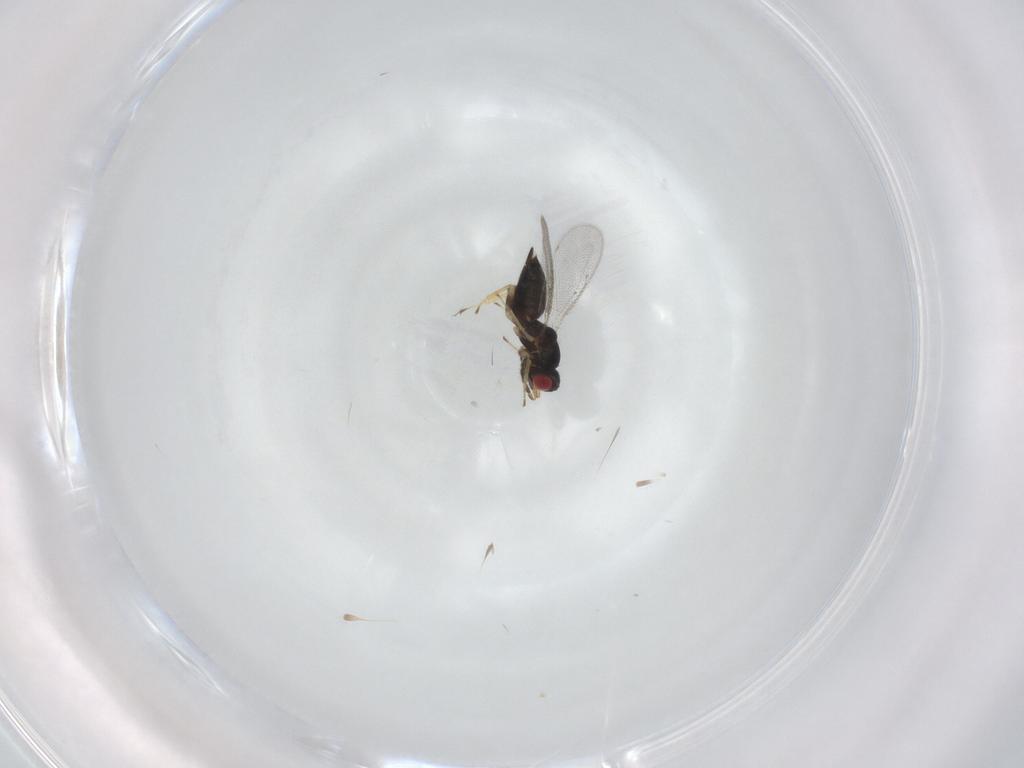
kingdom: Animalia
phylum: Arthropoda
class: Insecta
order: Hymenoptera
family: Eulophidae
